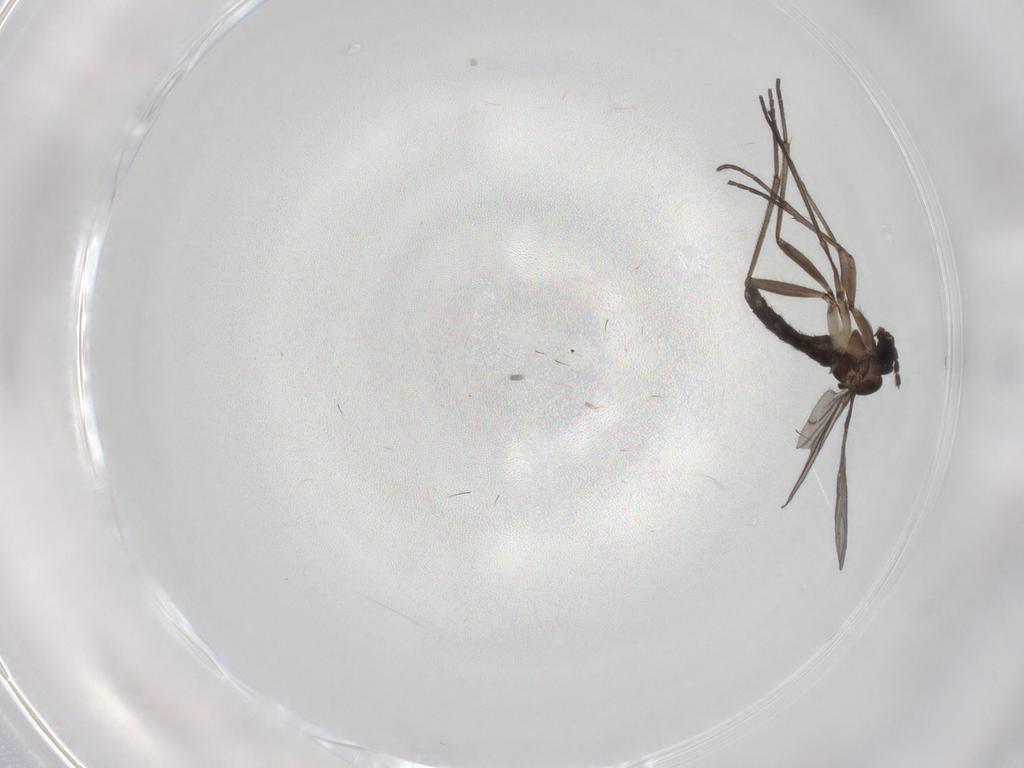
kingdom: Animalia
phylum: Arthropoda
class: Insecta
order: Diptera
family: Sciaridae
